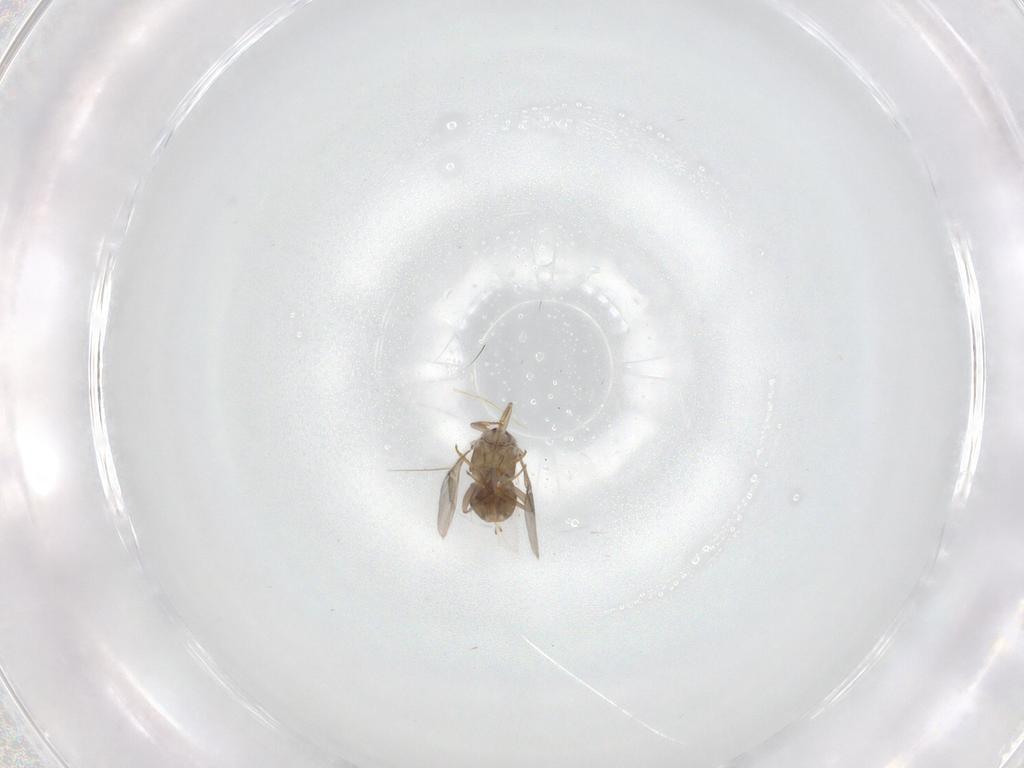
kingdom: Animalia
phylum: Arthropoda
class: Insecta
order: Hymenoptera
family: Encyrtidae
